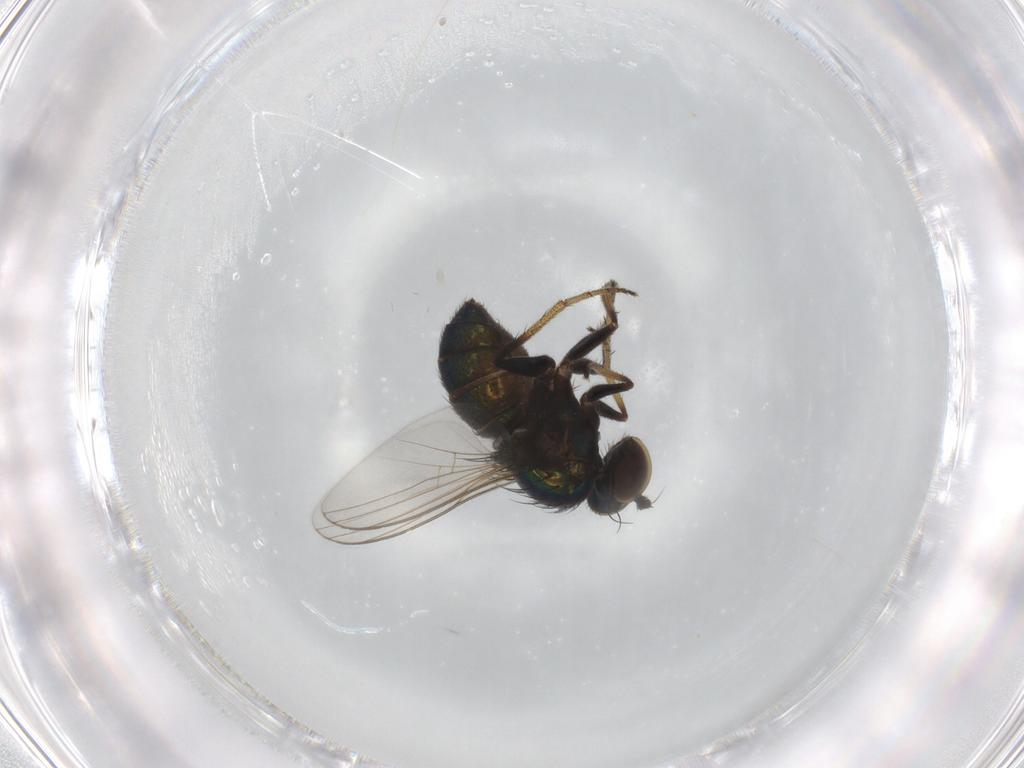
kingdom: Animalia
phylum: Arthropoda
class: Insecta
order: Diptera
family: Dolichopodidae
